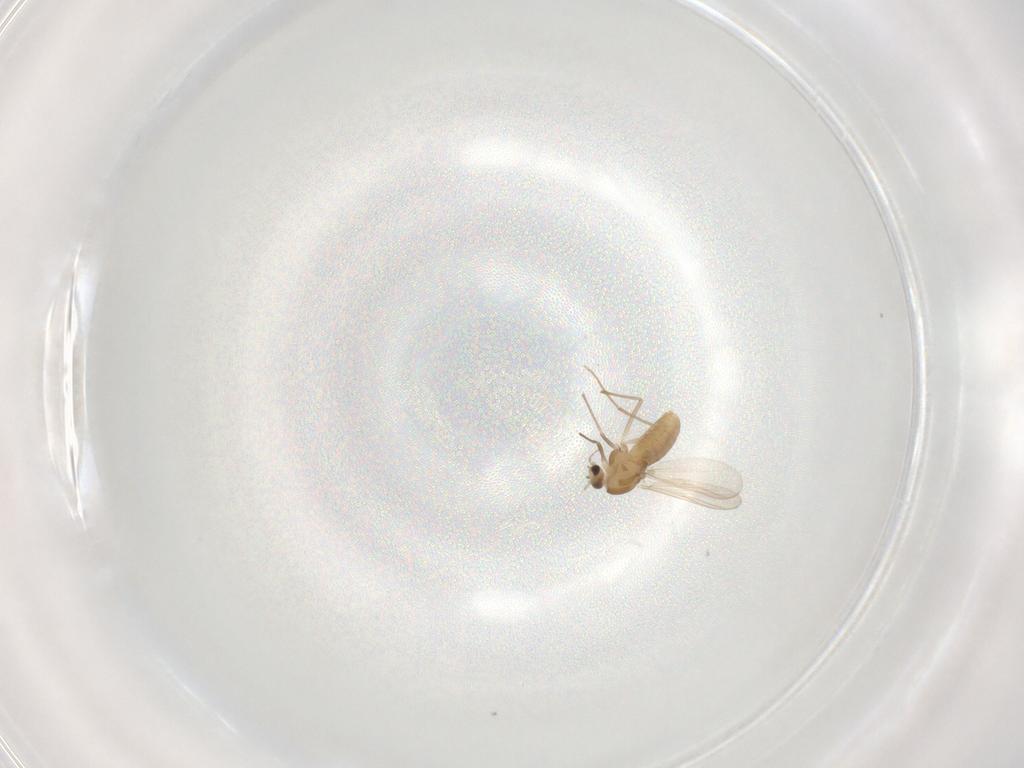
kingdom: Animalia
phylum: Arthropoda
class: Insecta
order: Diptera
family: Chironomidae
